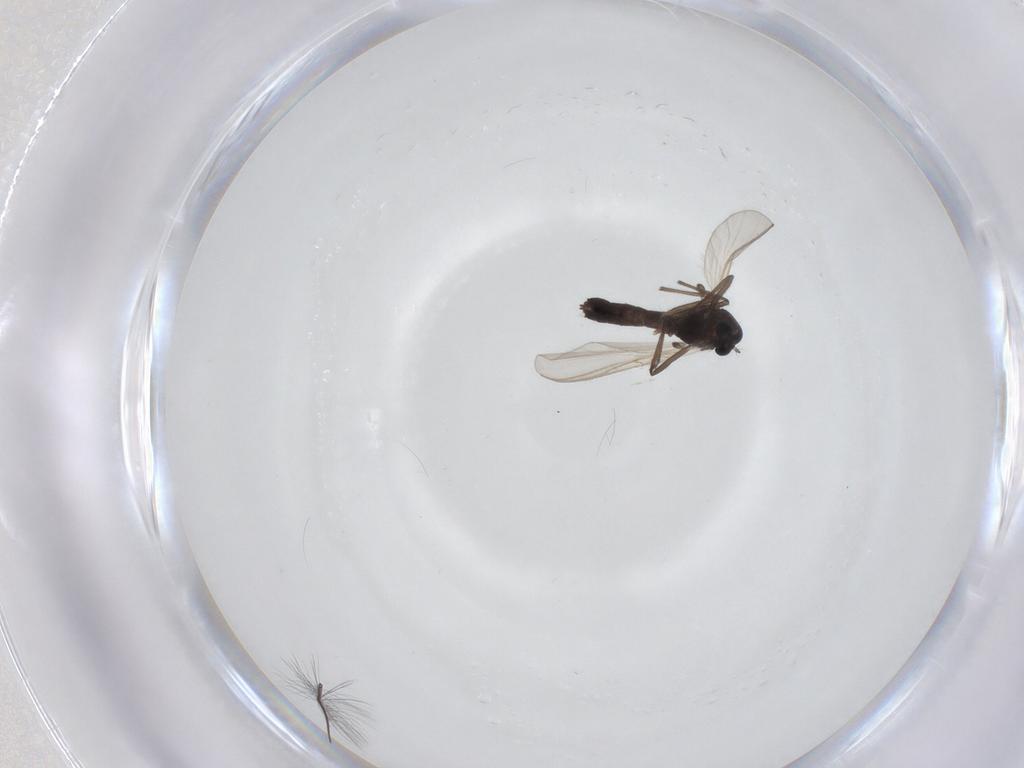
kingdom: Animalia
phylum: Arthropoda
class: Insecta
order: Diptera
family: Chironomidae
